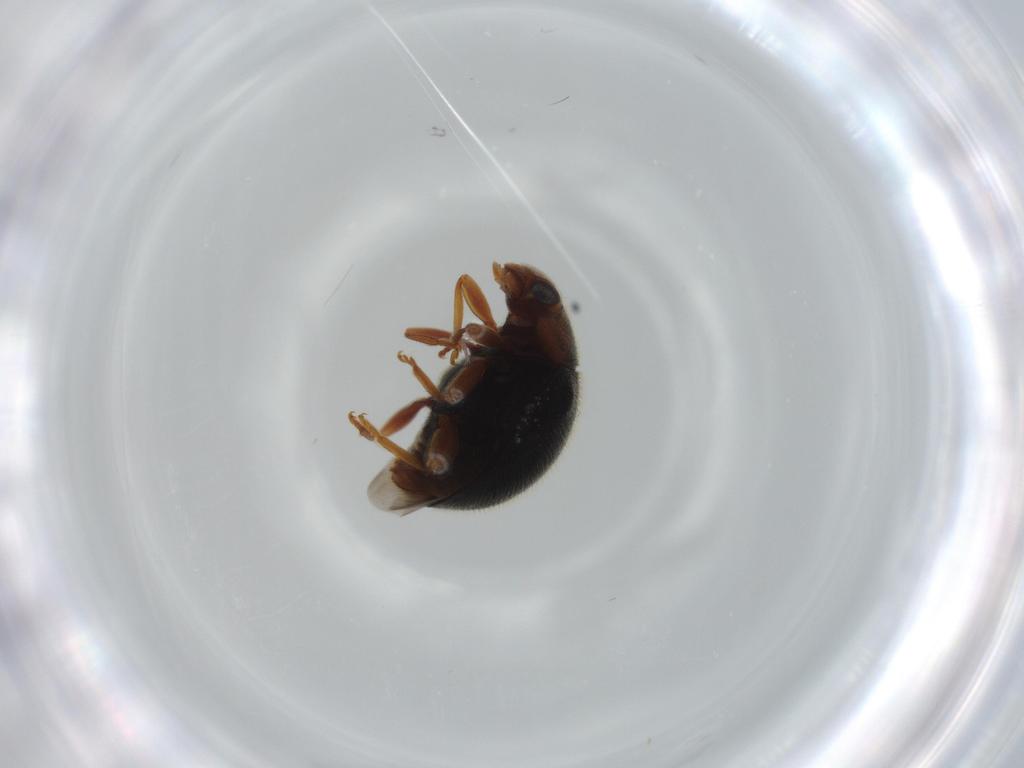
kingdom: Animalia
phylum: Arthropoda
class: Insecta
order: Coleoptera
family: Coccinellidae
